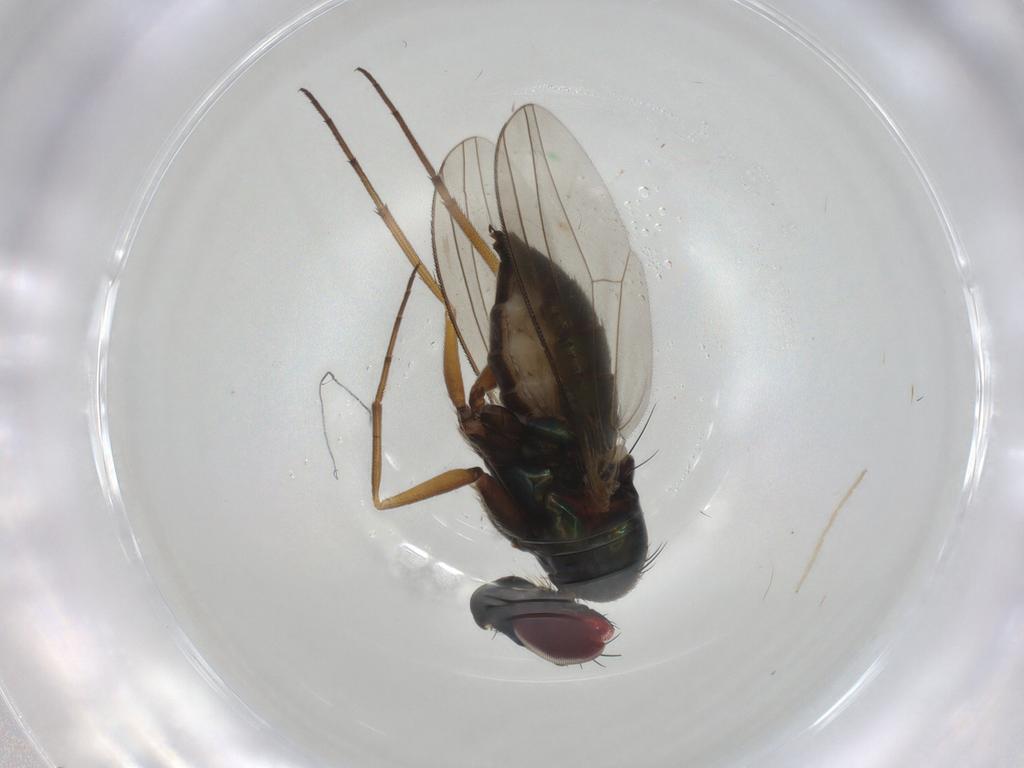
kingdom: Animalia
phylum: Arthropoda
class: Insecta
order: Diptera
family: Dolichopodidae
